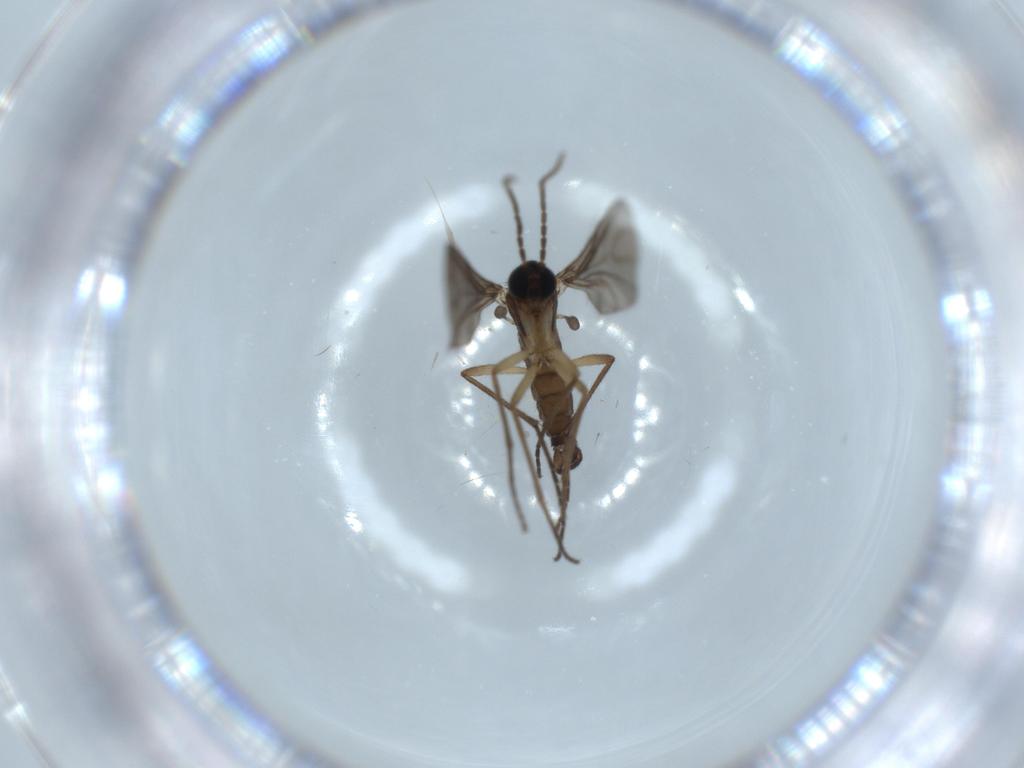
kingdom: Animalia
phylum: Arthropoda
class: Insecta
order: Diptera
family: Sciaridae
